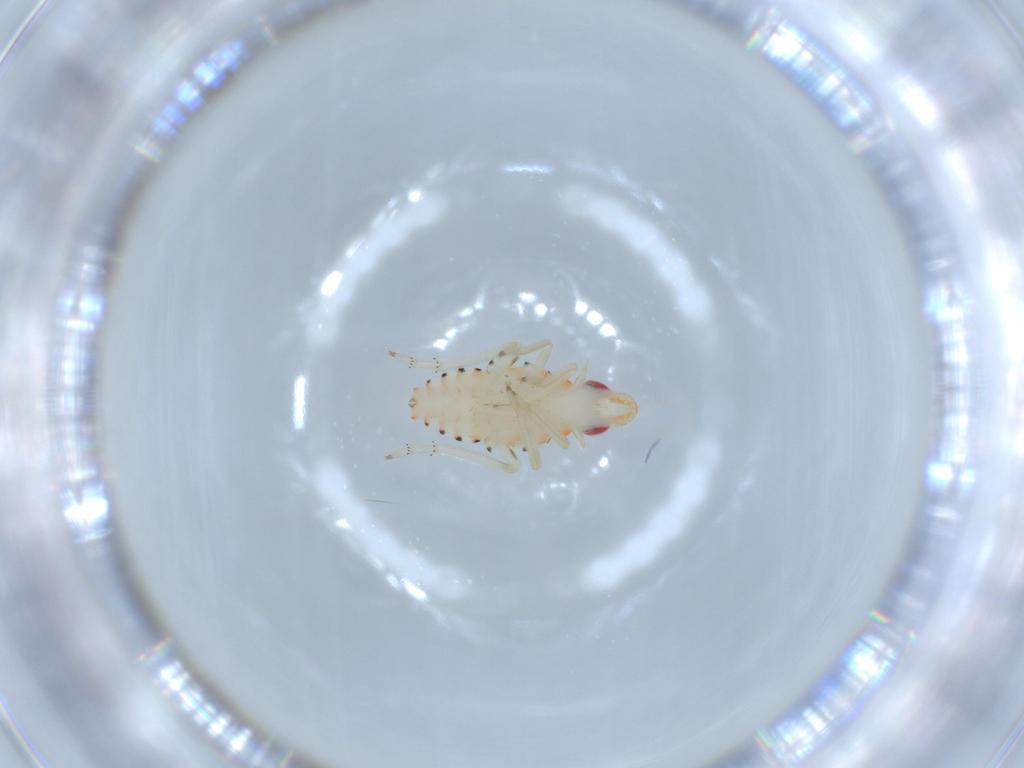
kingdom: Animalia
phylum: Arthropoda
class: Insecta
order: Hemiptera
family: Tropiduchidae
